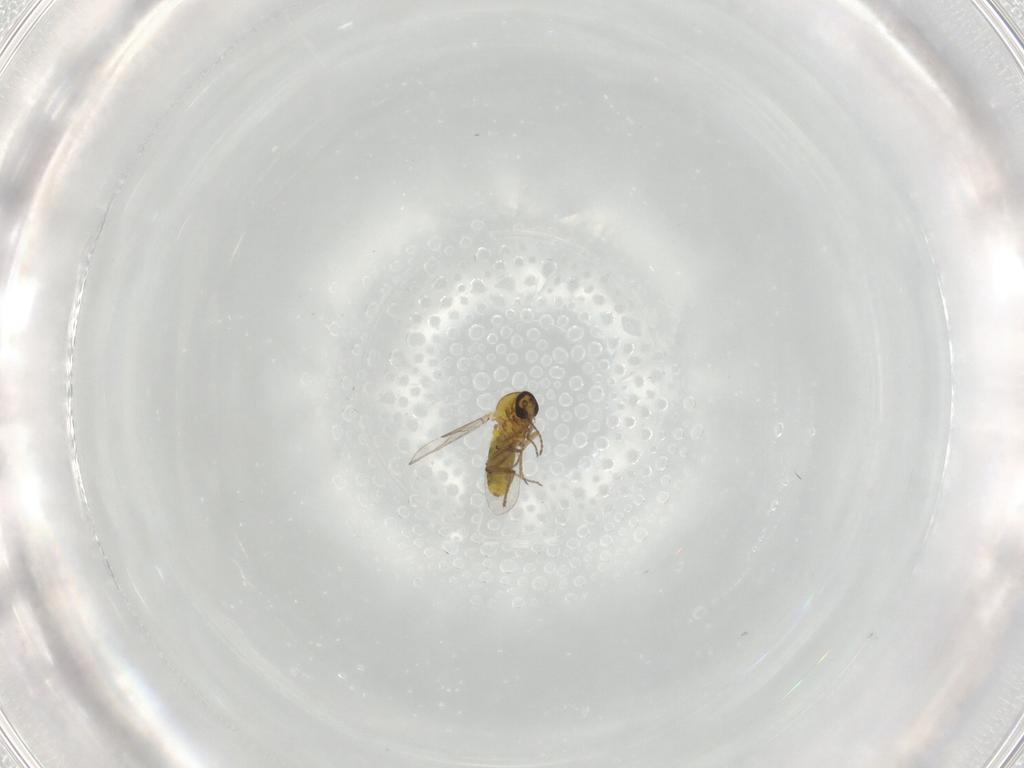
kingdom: Animalia
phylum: Arthropoda
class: Insecta
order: Diptera
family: Ceratopogonidae
